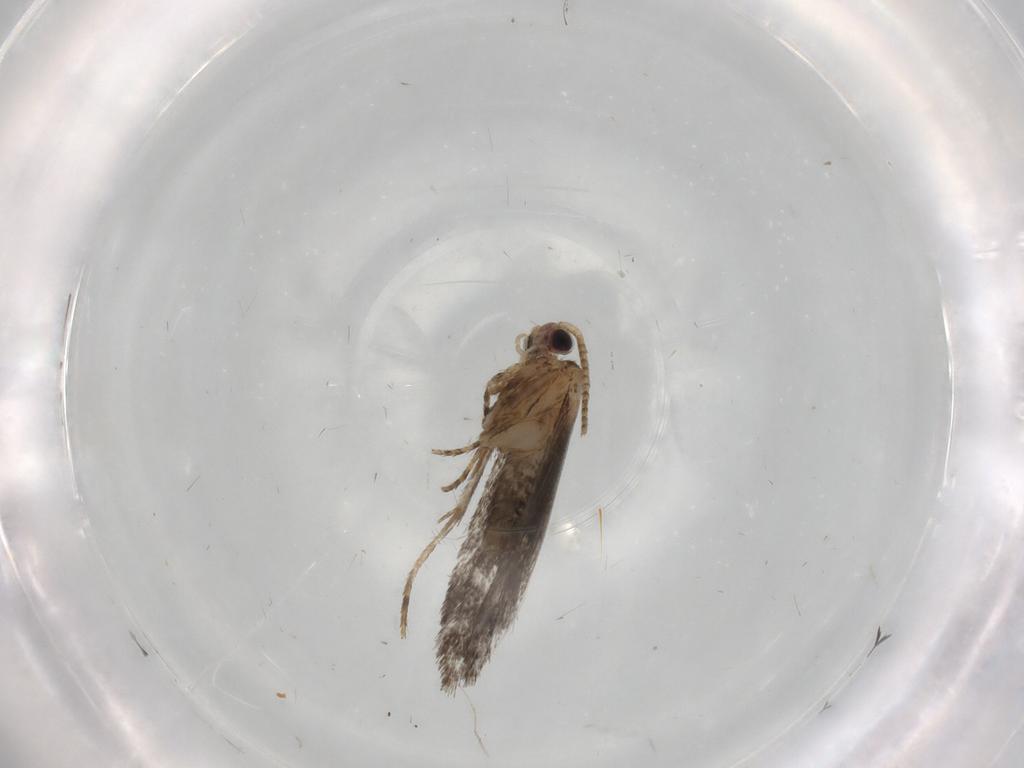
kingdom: Animalia
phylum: Arthropoda
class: Insecta
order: Lepidoptera
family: Tineidae
